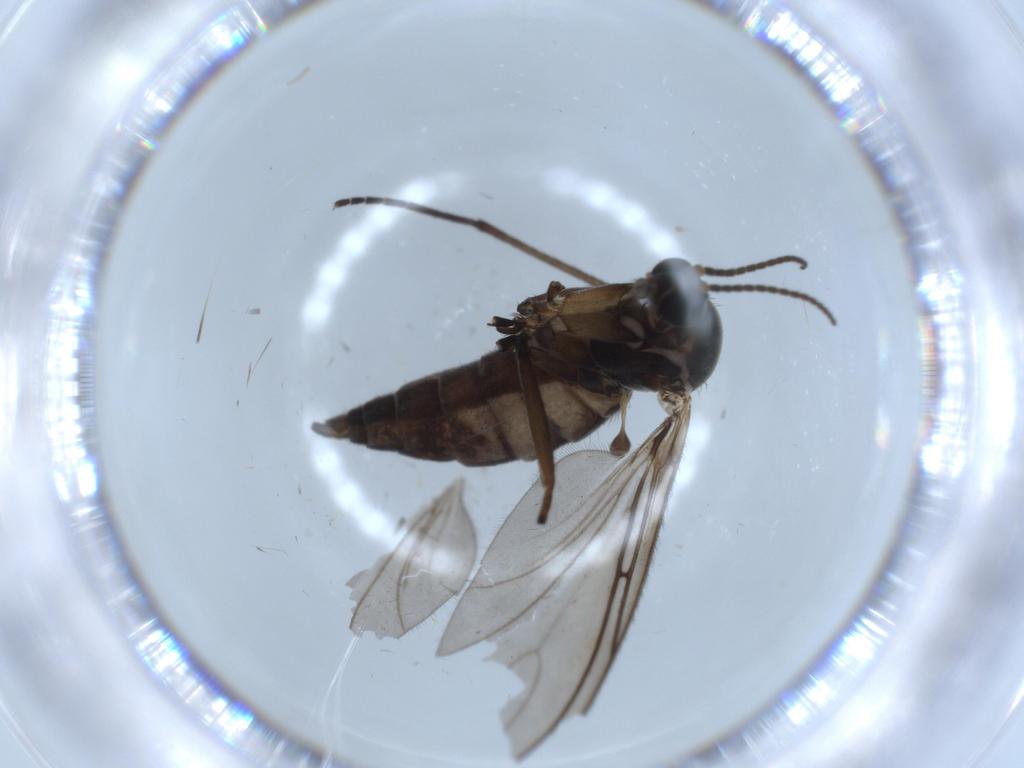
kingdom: Animalia
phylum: Arthropoda
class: Insecta
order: Diptera
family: Sciaridae
